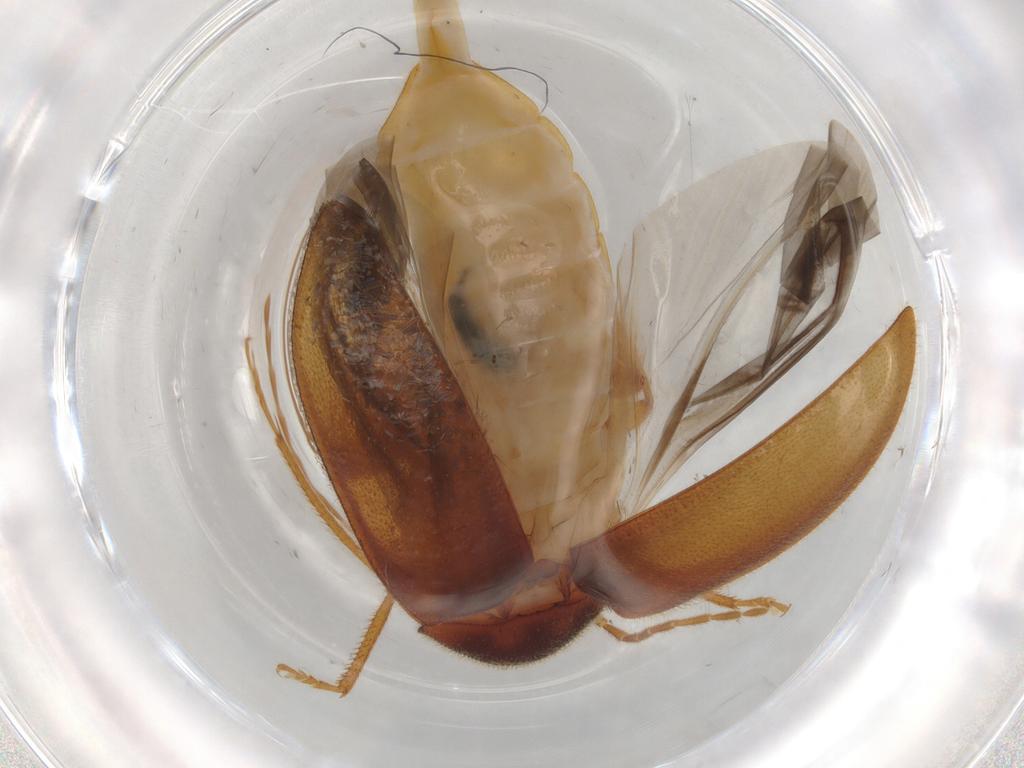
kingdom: Animalia
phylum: Arthropoda
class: Insecta
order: Coleoptera
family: Ptilodactylidae
